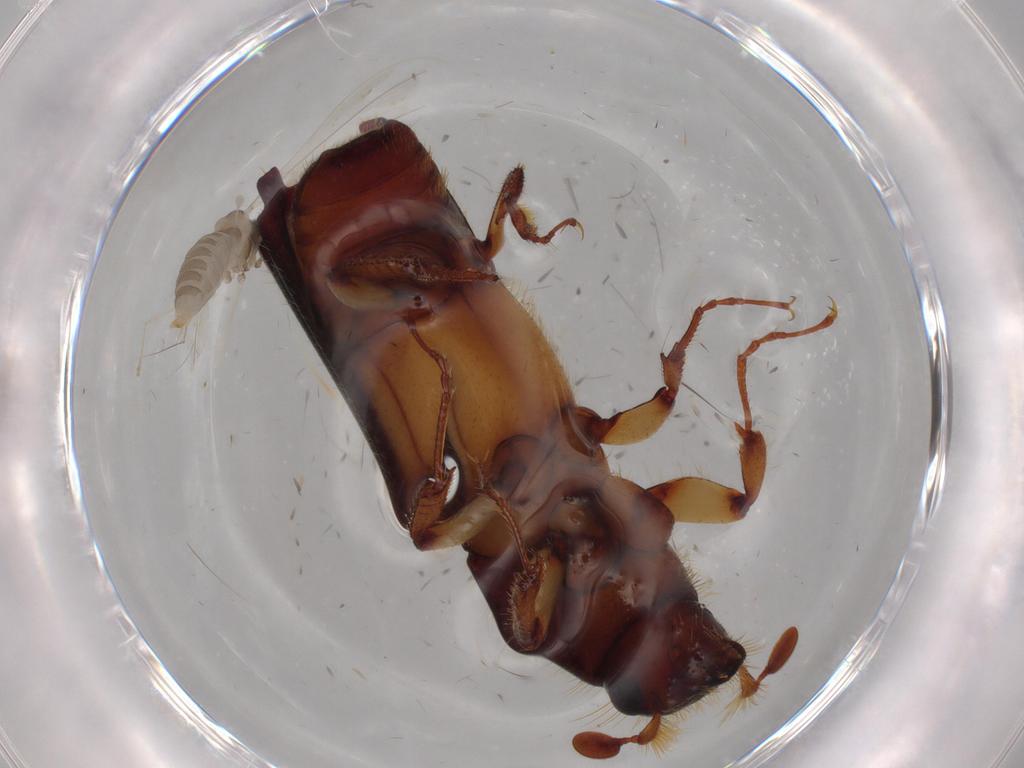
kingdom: Animalia
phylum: Arthropoda
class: Insecta
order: Coleoptera
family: Curculionidae
